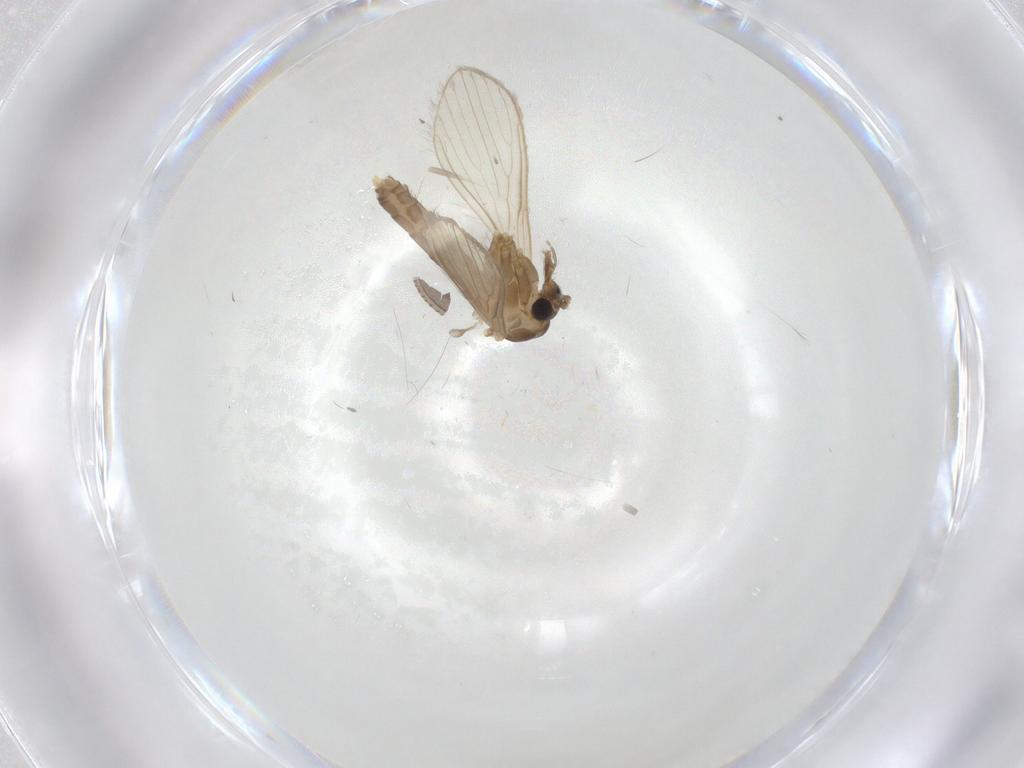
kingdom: Animalia
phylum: Arthropoda
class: Insecta
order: Diptera
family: Psychodidae
